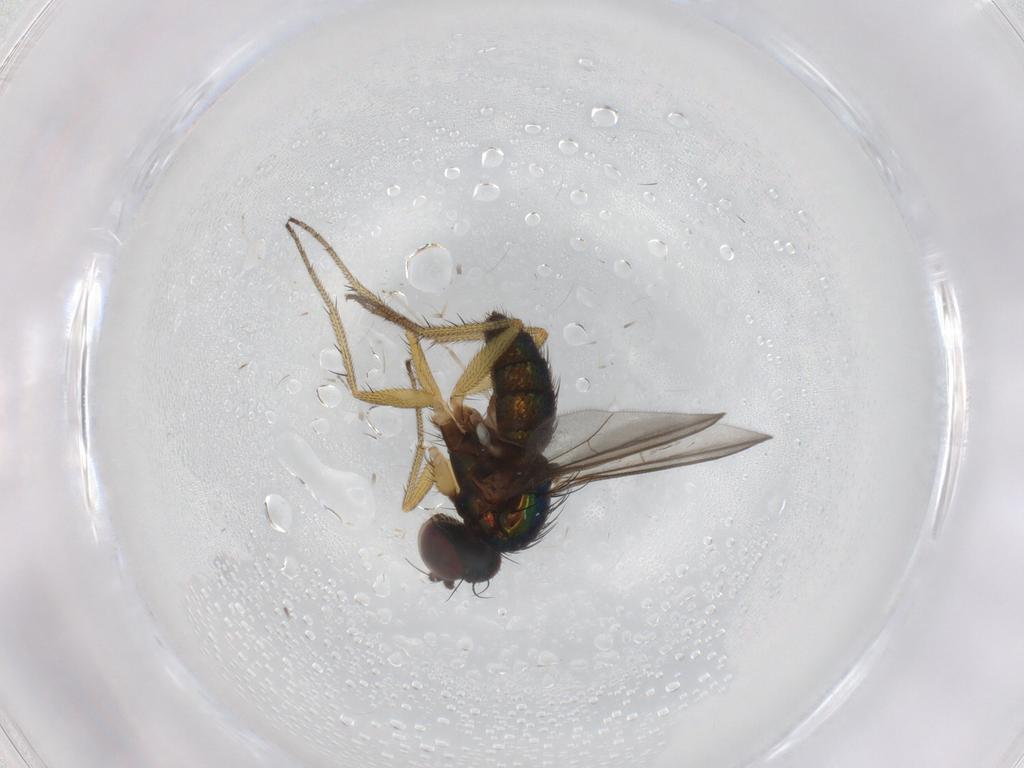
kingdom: Animalia
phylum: Arthropoda
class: Insecta
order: Diptera
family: Chironomidae
